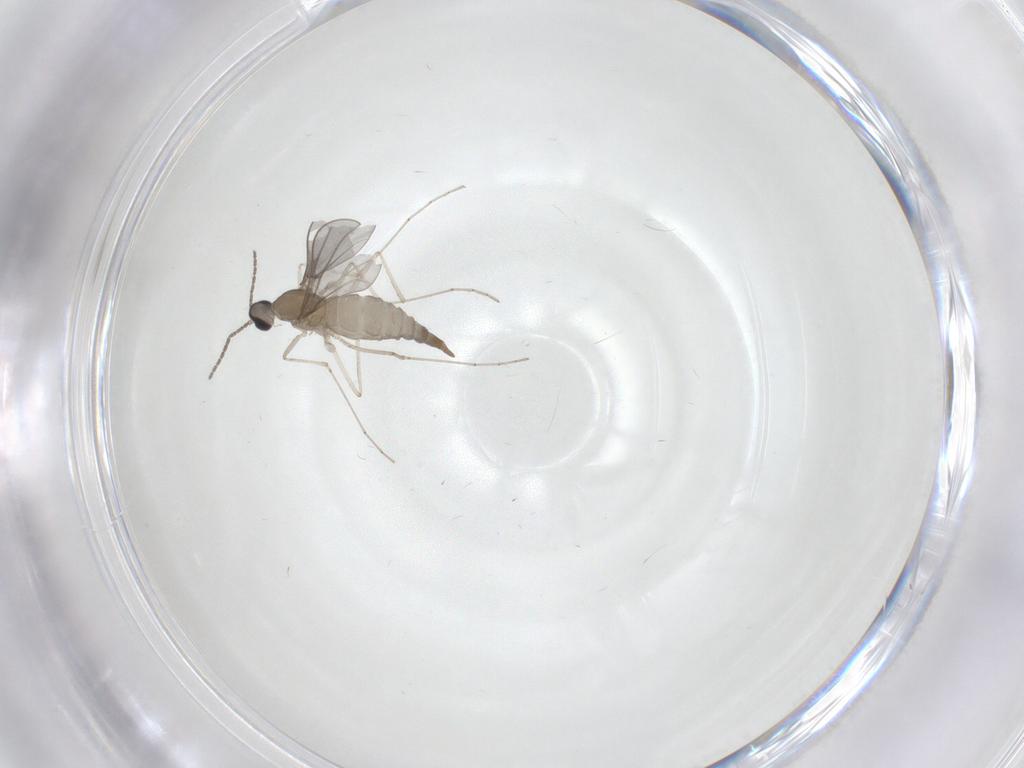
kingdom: Animalia
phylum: Arthropoda
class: Insecta
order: Diptera
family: Cecidomyiidae
